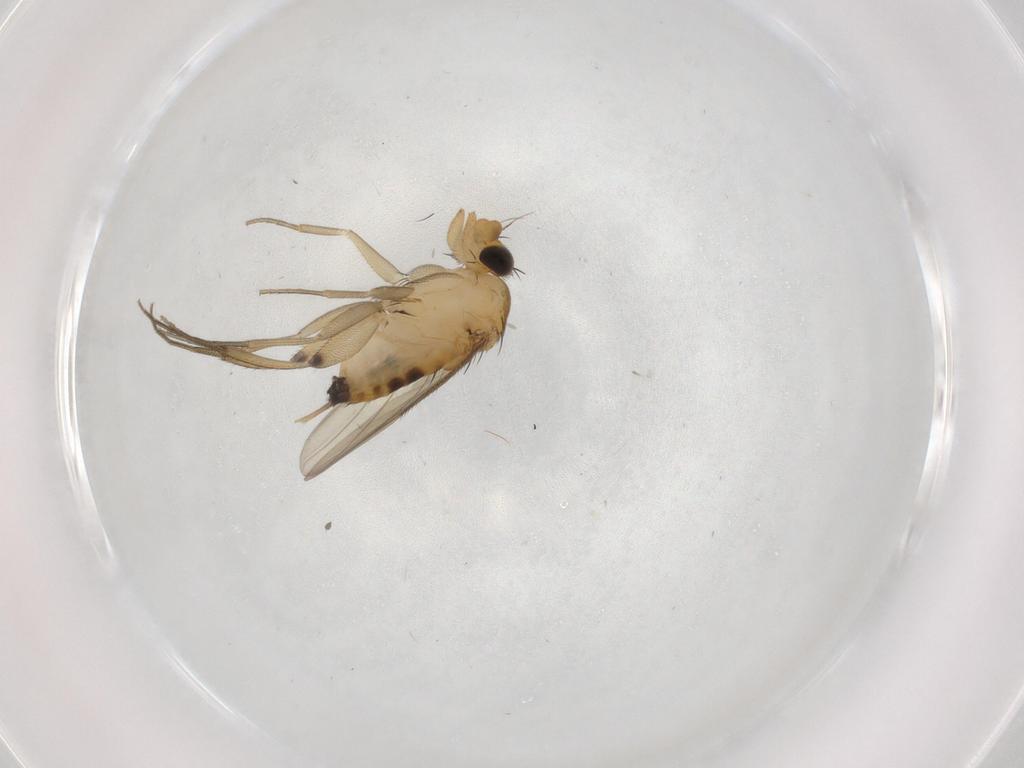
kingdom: Animalia
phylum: Arthropoda
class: Insecta
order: Diptera
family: Phoridae
